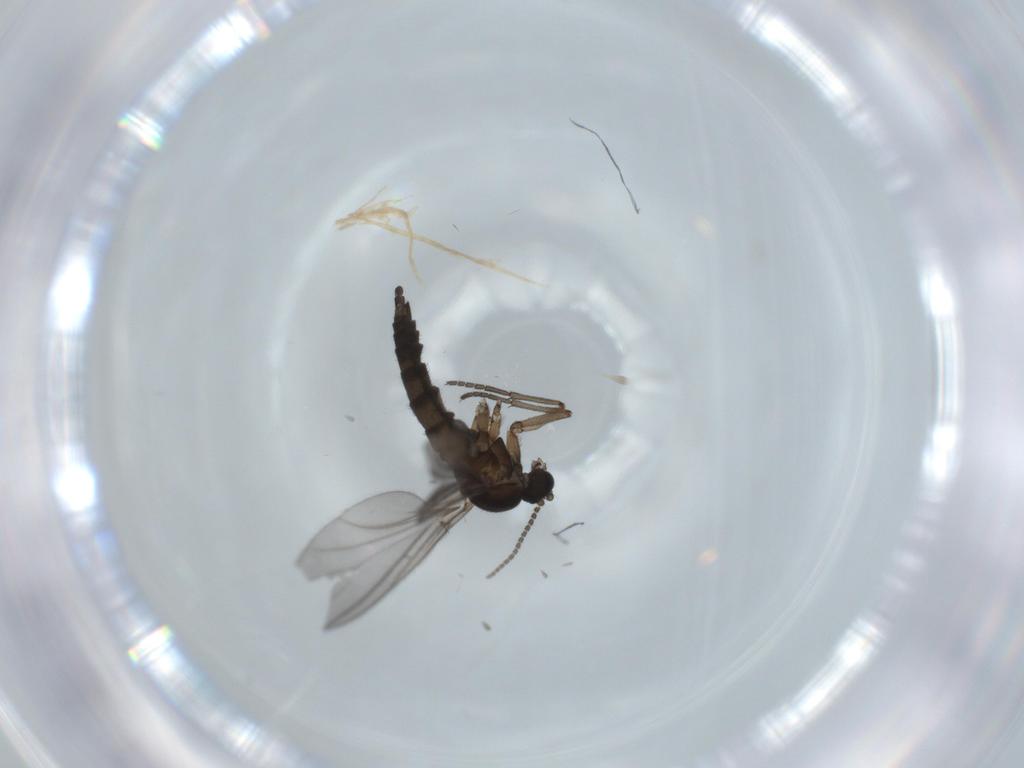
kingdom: Animalia
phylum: Arthropoda
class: Insecta
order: Diptera
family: Sciaridae
